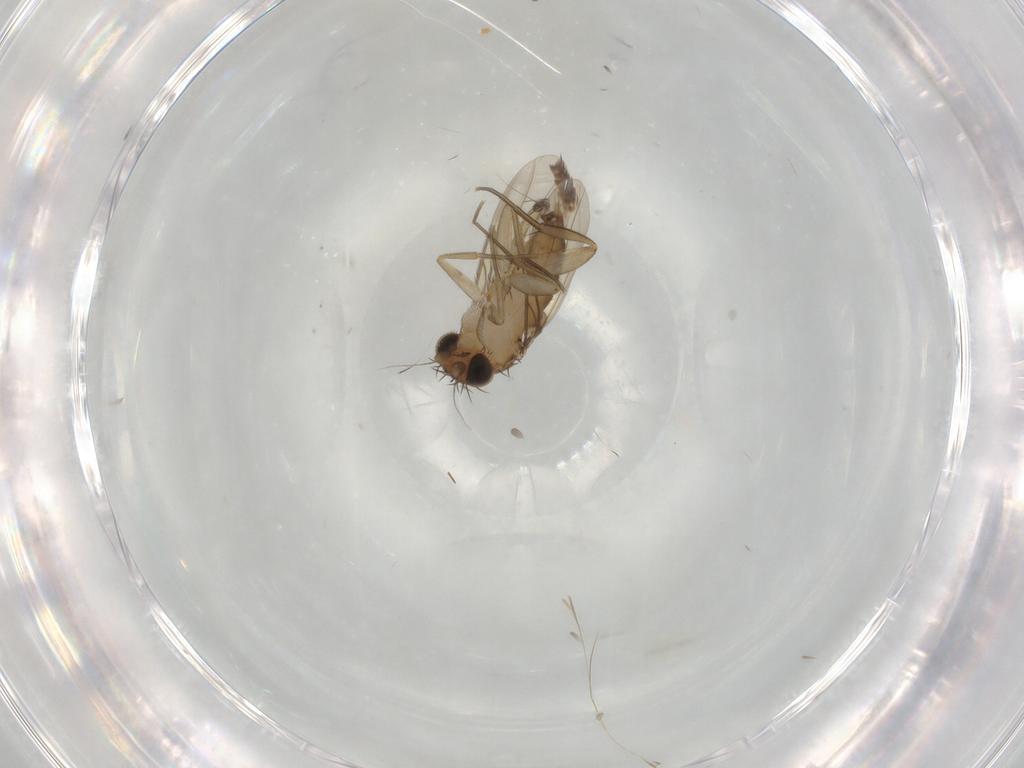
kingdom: Animalia
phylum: Arthropoda
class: Insecta
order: Diptera
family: Phoridae
